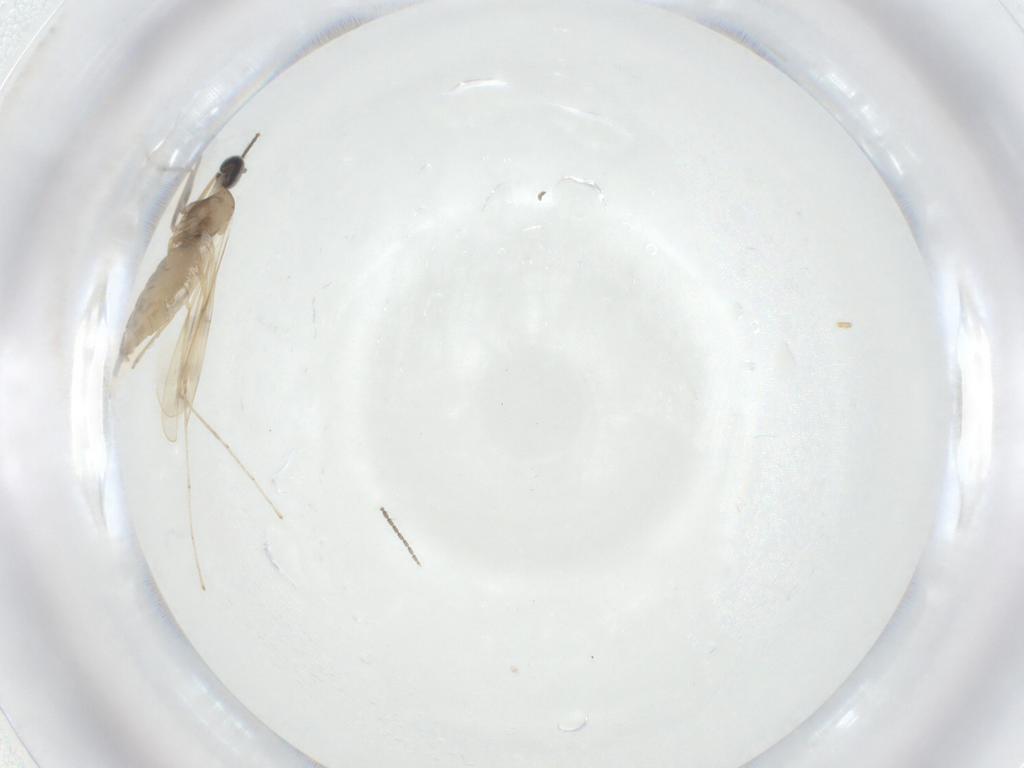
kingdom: Animalia
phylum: Arthropoda
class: Insecta
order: Diptera
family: Cecidomyiidae
